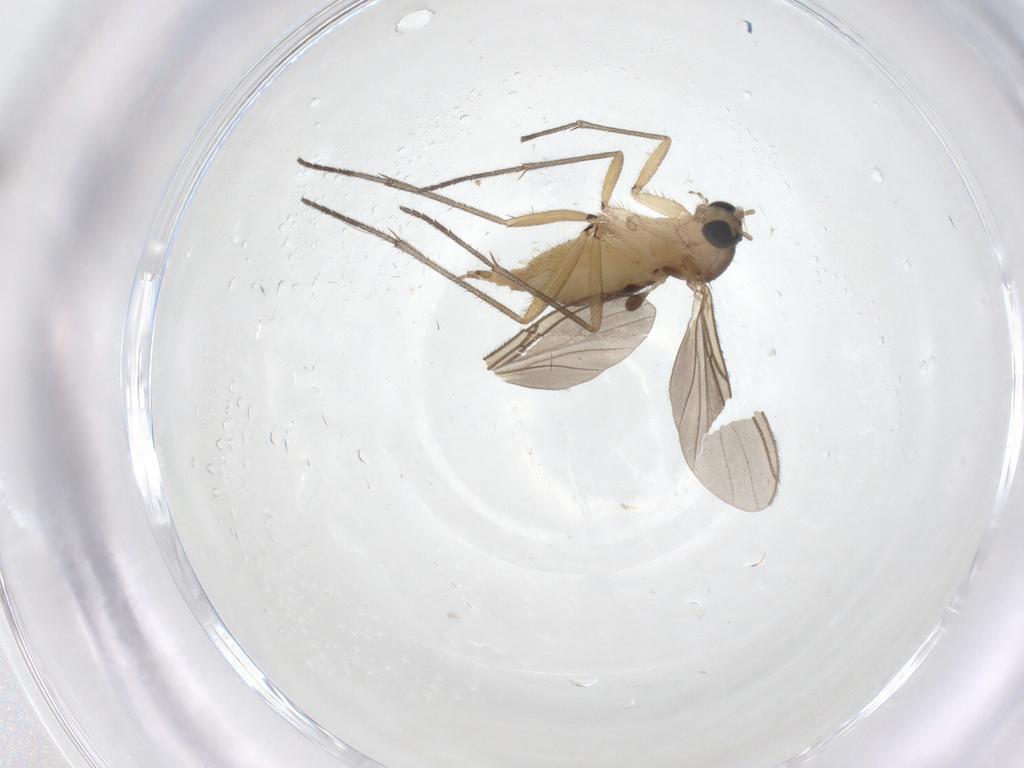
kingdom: Animalia
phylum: Arthropoda
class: Insecta
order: Diptera
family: Sciaridae
